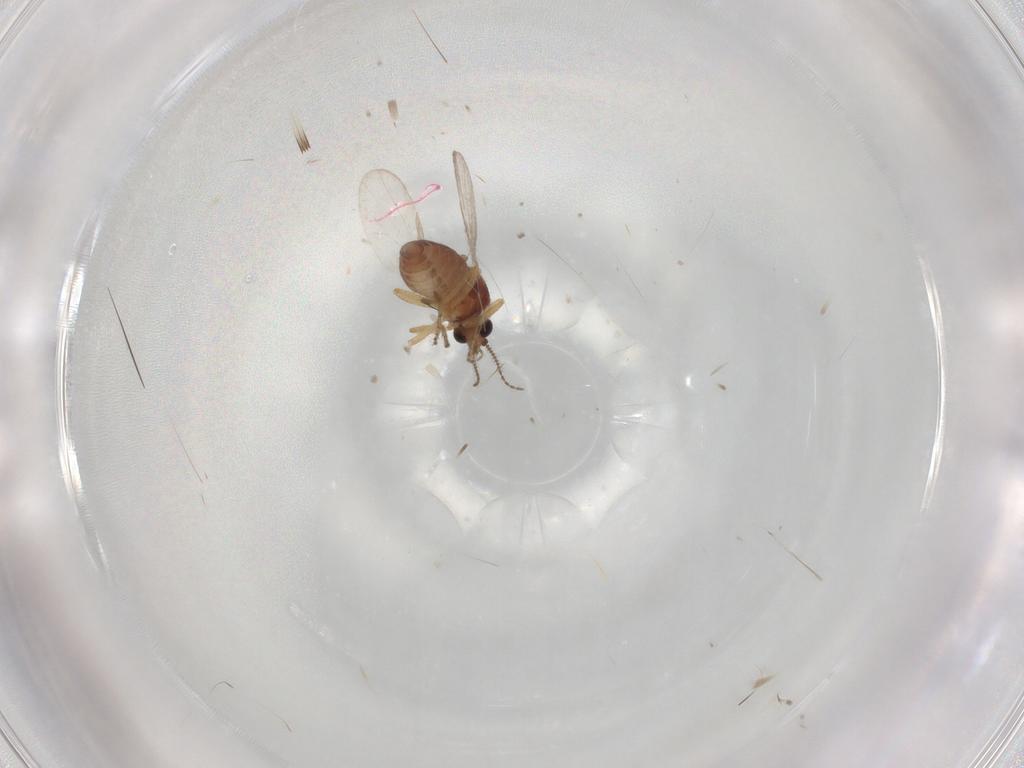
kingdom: Animalia
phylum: Arthropoda
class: Insecta
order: Diptera
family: Ceratopogonidae
